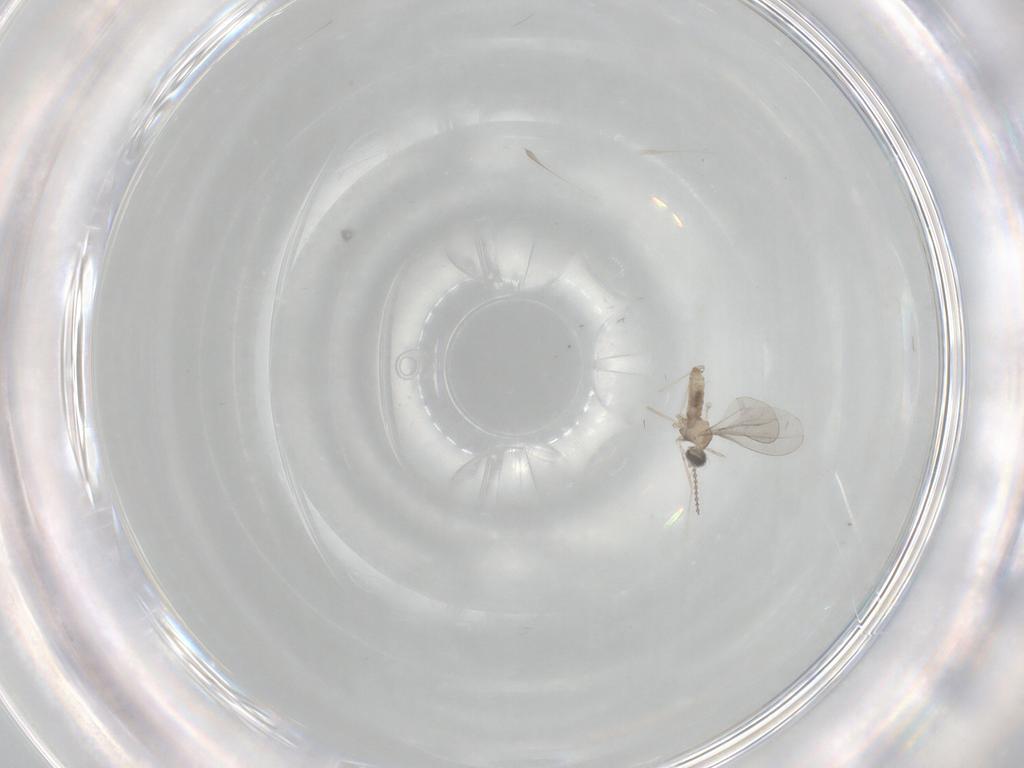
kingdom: Animalia
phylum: Arthropoda
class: Insecta
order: Diptera
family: Cecidomyiidae
